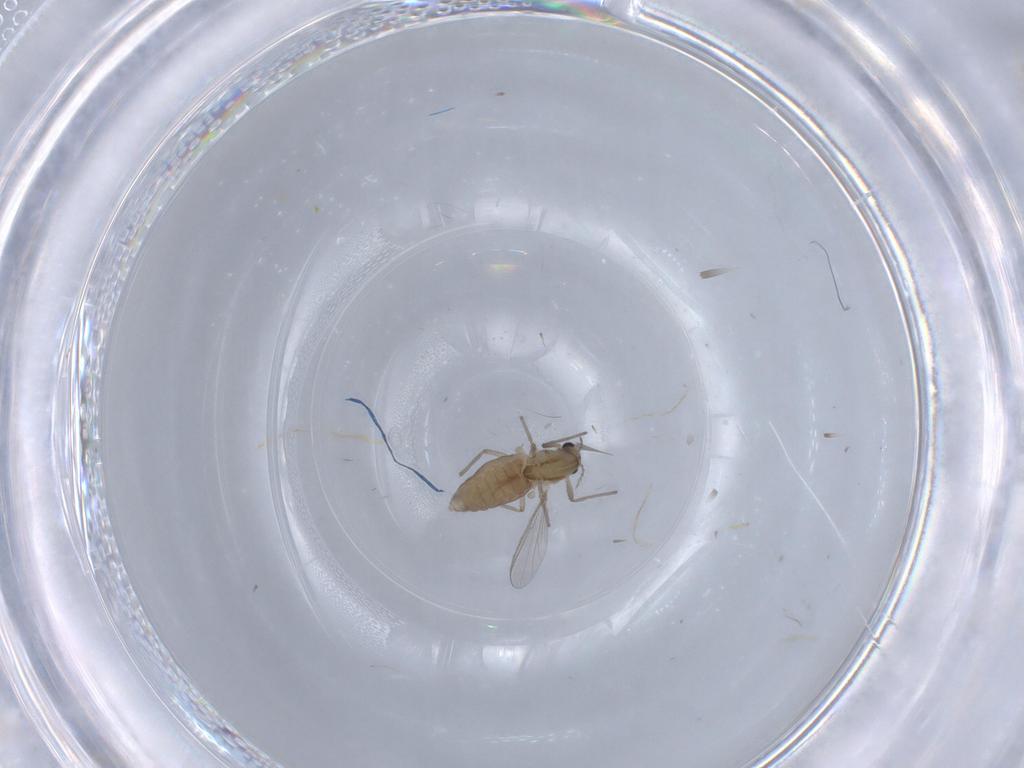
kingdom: Animalia
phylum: Arthropoda
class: Insecta
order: Diptera
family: Chironomidae
